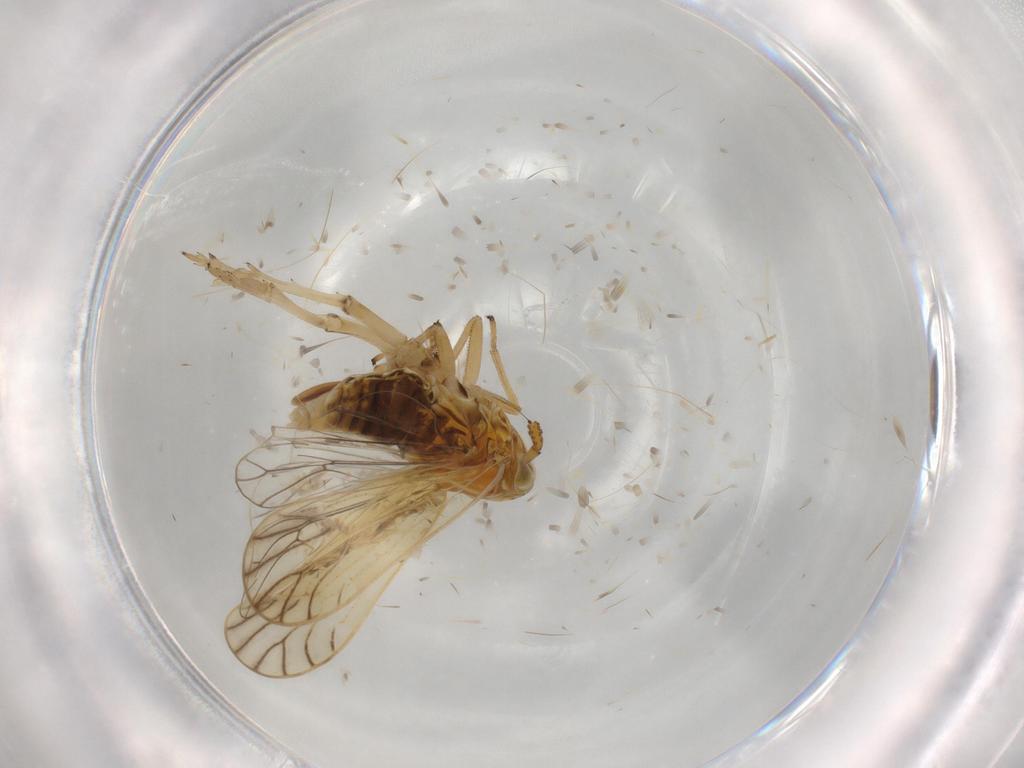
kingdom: Animalia
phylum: Arthropoda
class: Insecta
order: Hemiptera
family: Delphacidae
